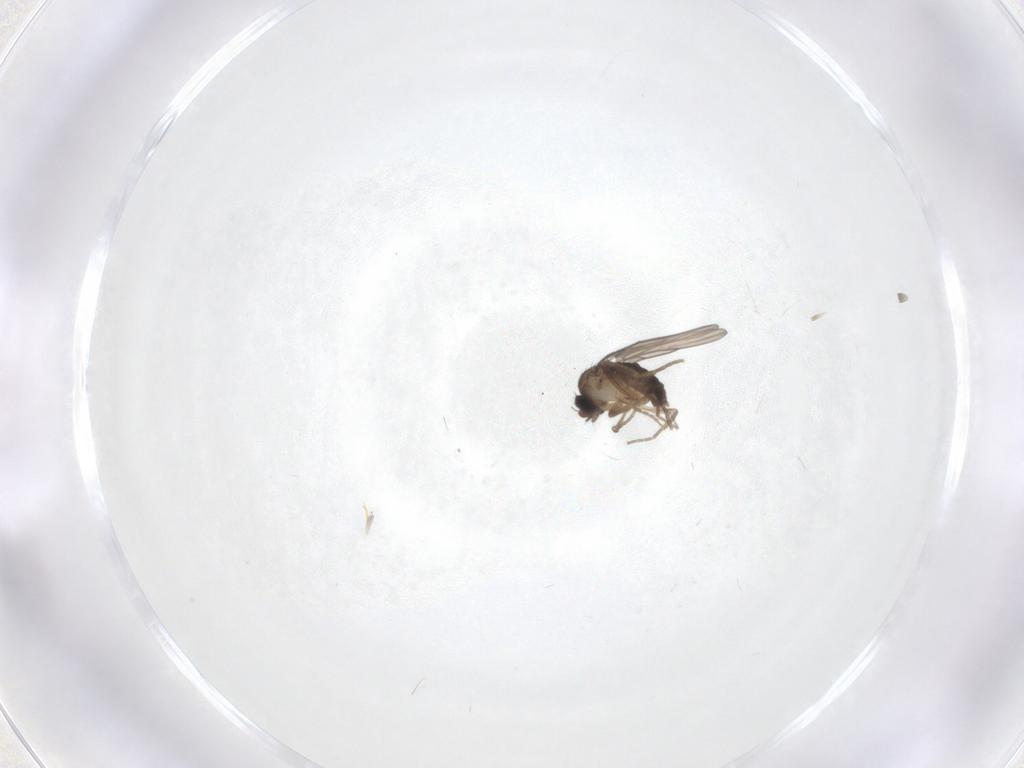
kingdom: Animalia
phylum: Arthropoda
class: Insecta
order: Diptera
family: Phoridae
